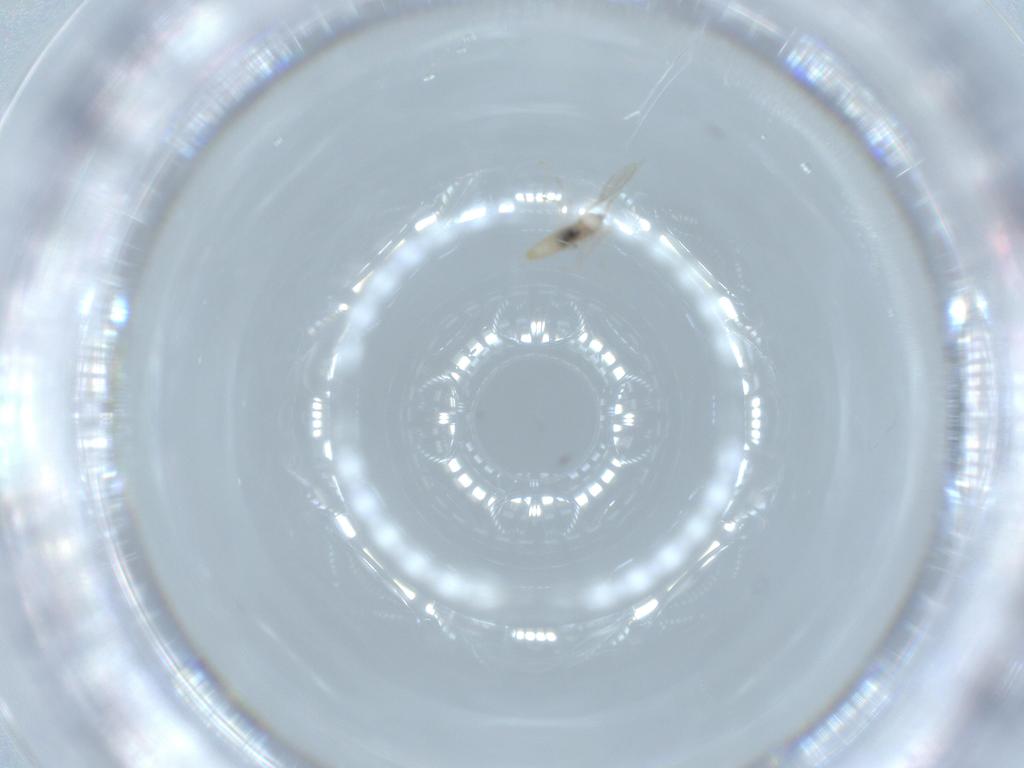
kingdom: Animalia
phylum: Arthropoda
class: Insecta
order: Diptera
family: Cecidomyiidae
